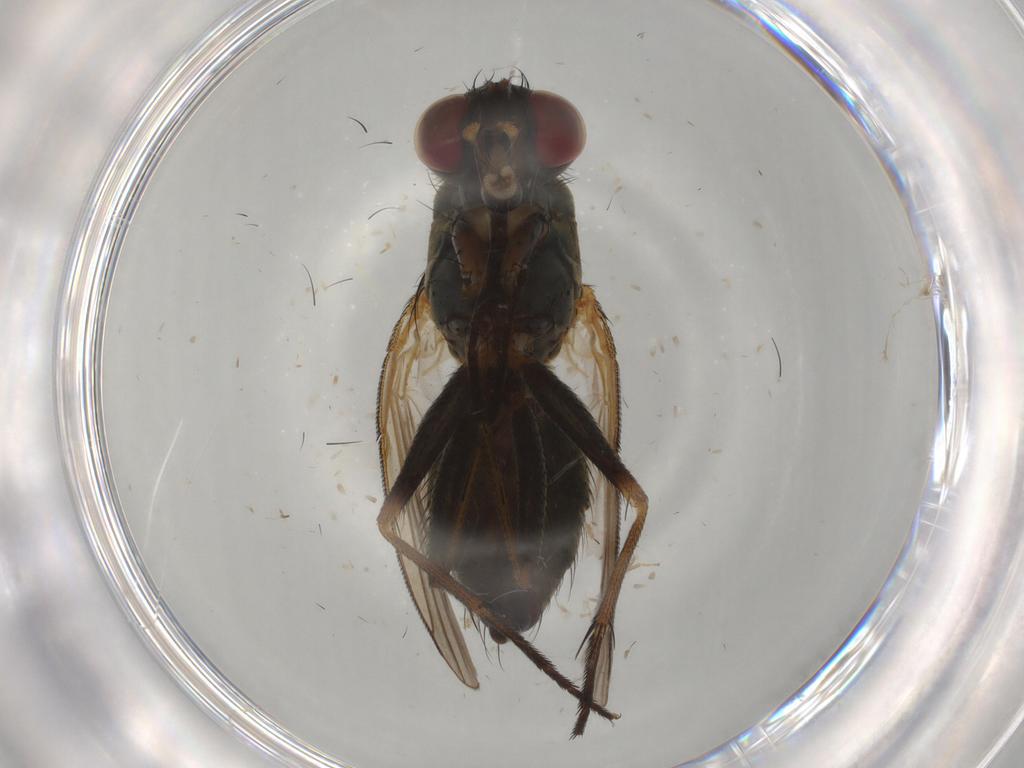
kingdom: Animalia
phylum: Arthropoda
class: Insecta
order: Diptera
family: Muscidae
